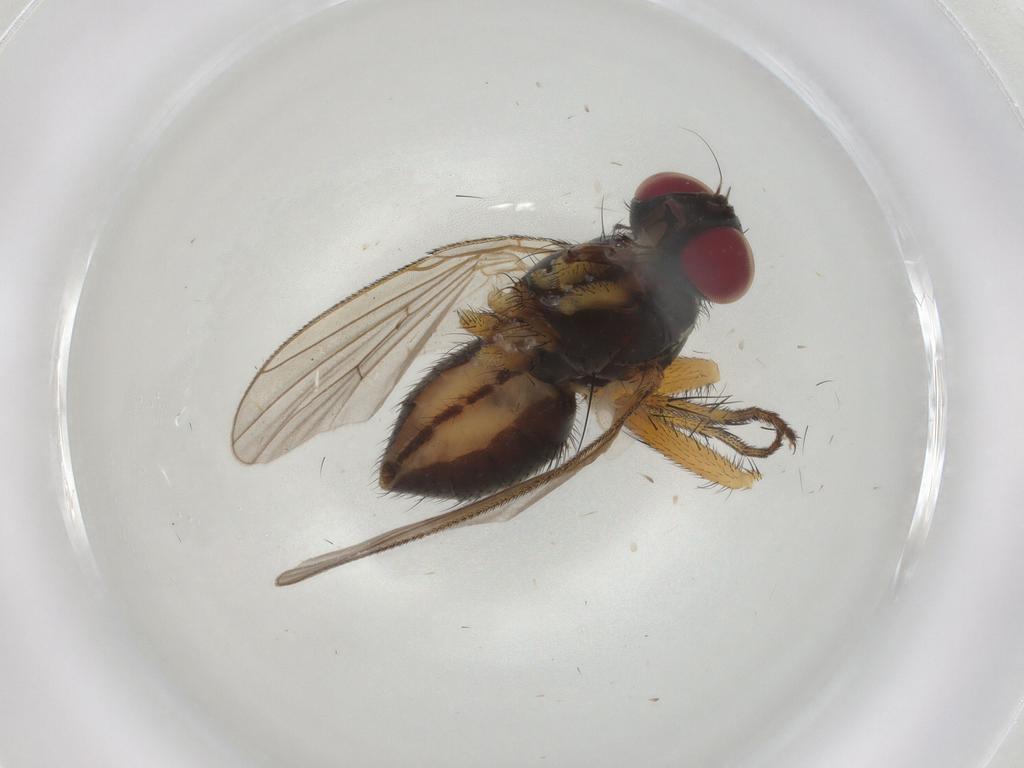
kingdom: Animalia
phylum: Arthropoda
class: Insecta
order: Diptera
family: Muscidae
